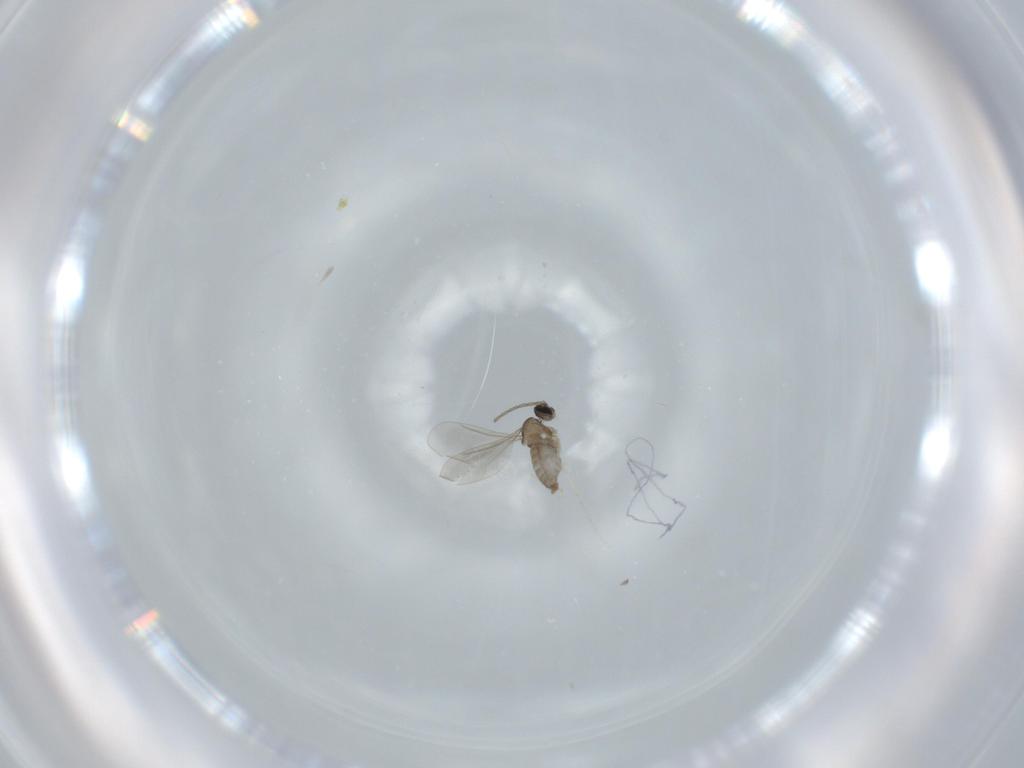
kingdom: Animalia
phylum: Arthropoda
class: Insecta
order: Diptera
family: Cecidomyiidae
